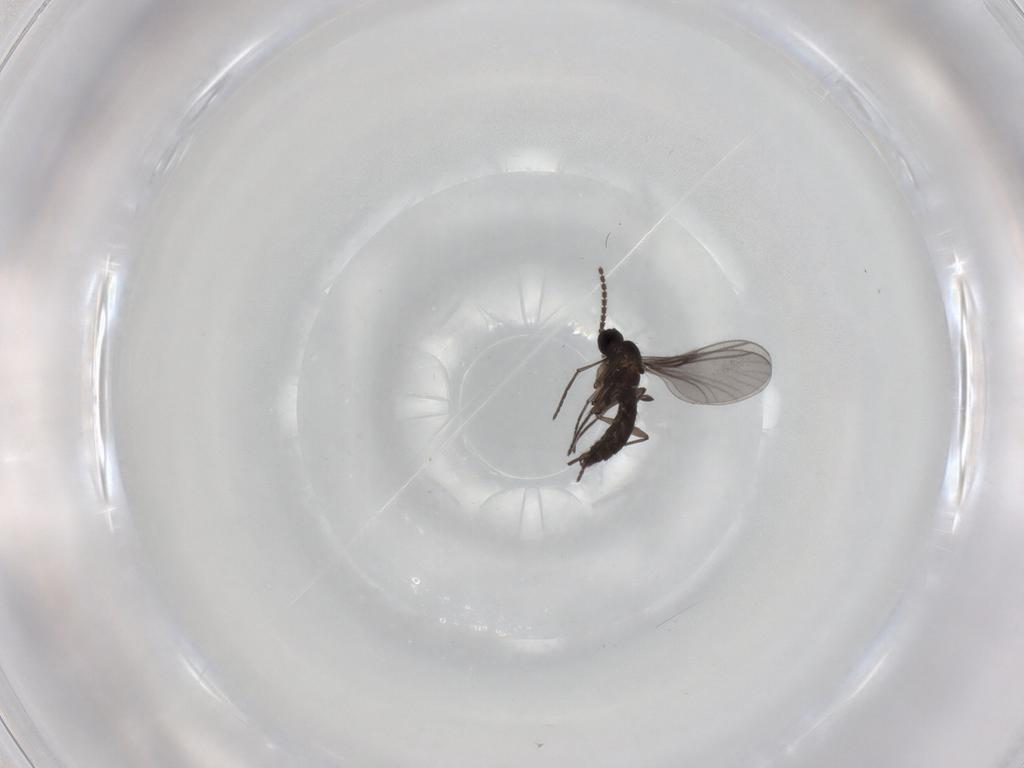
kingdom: Animalia
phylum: Arthropoda
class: Insecta
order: Diptera
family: Psychodidae
